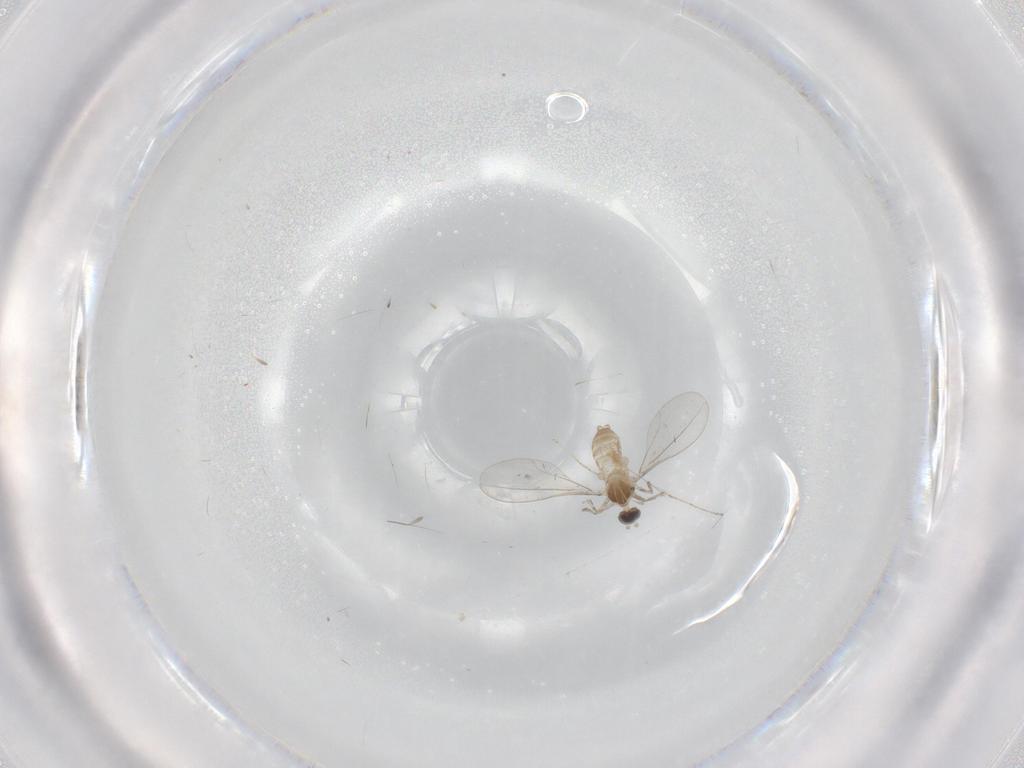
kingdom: Animalia
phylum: Arthropoda
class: Insecta
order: Diptera
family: Cecidomyiidae
